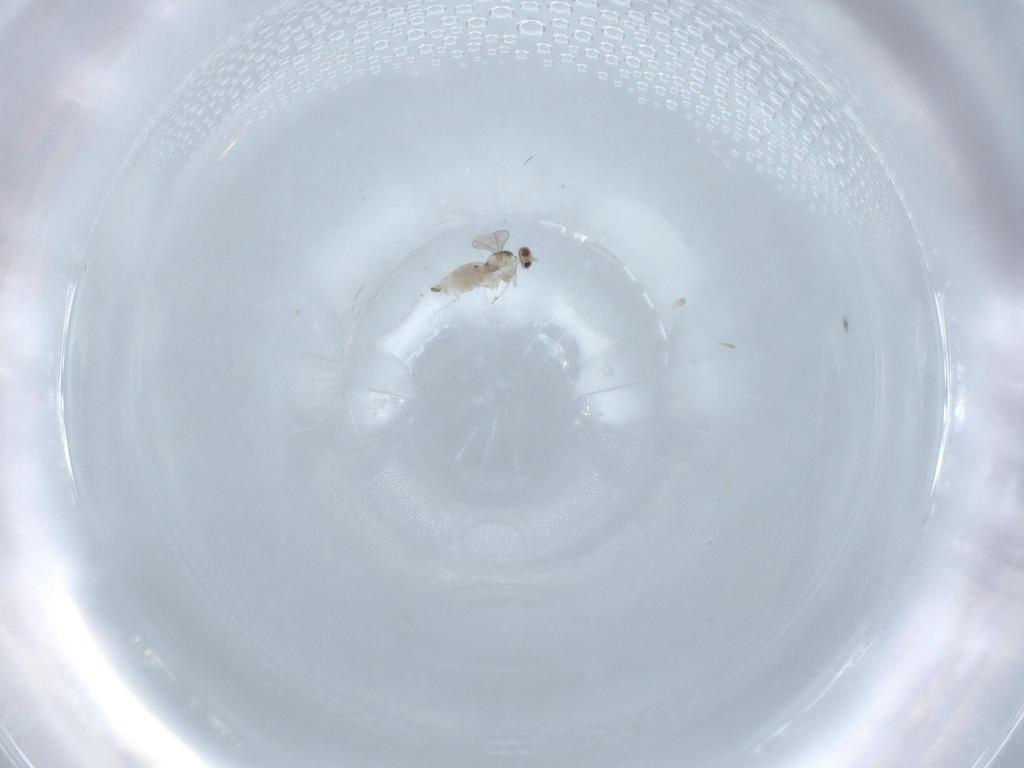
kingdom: Animalia
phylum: Arthropoda
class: Insecta
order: Diptera
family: Cecidomyiidae
